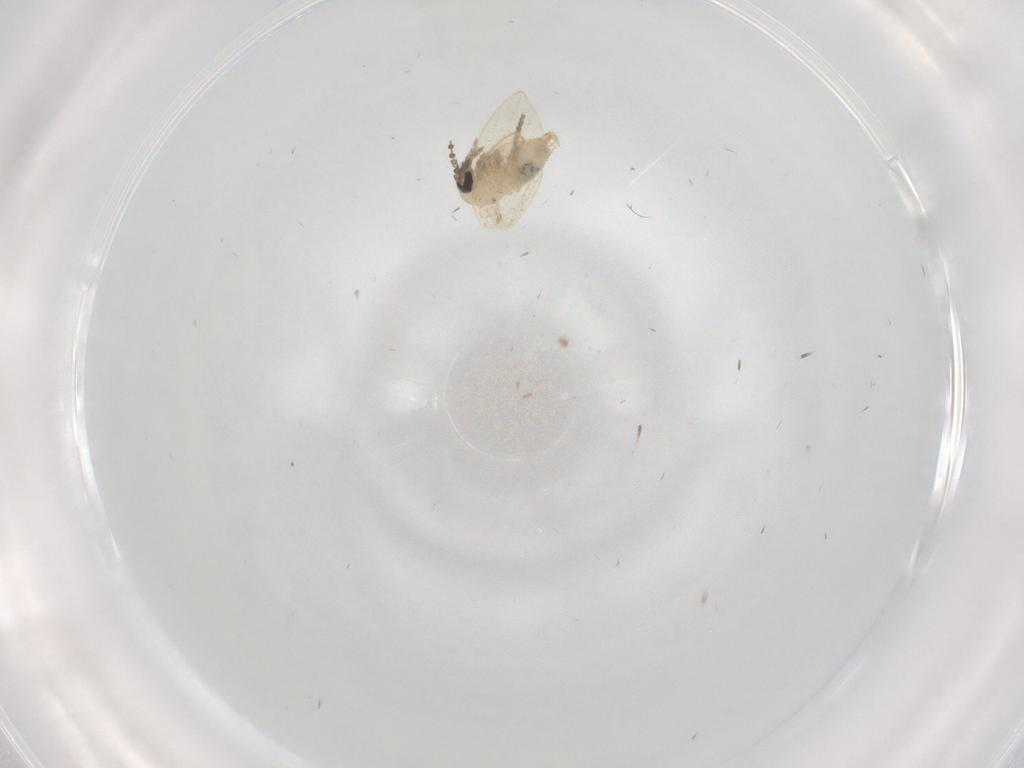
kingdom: Animalia
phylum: Arthropoda
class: Insecta
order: Diptera
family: Psychodidae
